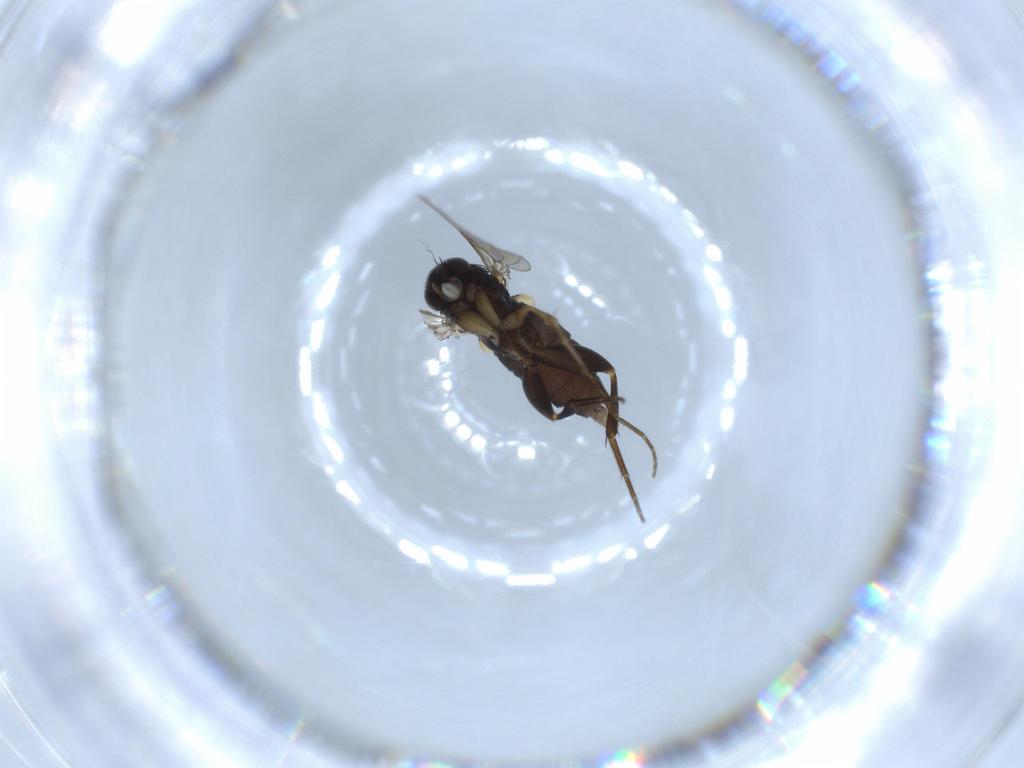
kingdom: Animalia
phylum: Arthropoda
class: Insecta
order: Diptera
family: Phoridae
